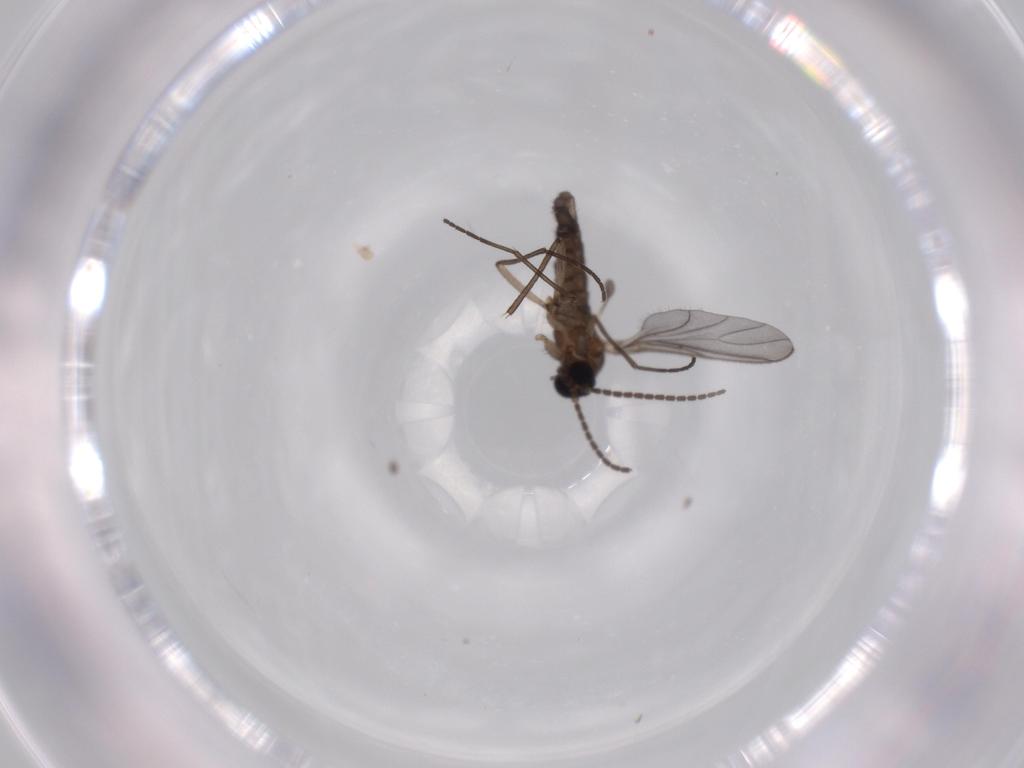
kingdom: Animalia
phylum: Arthropoda
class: Insecta
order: Diptera
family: Sciaridae
